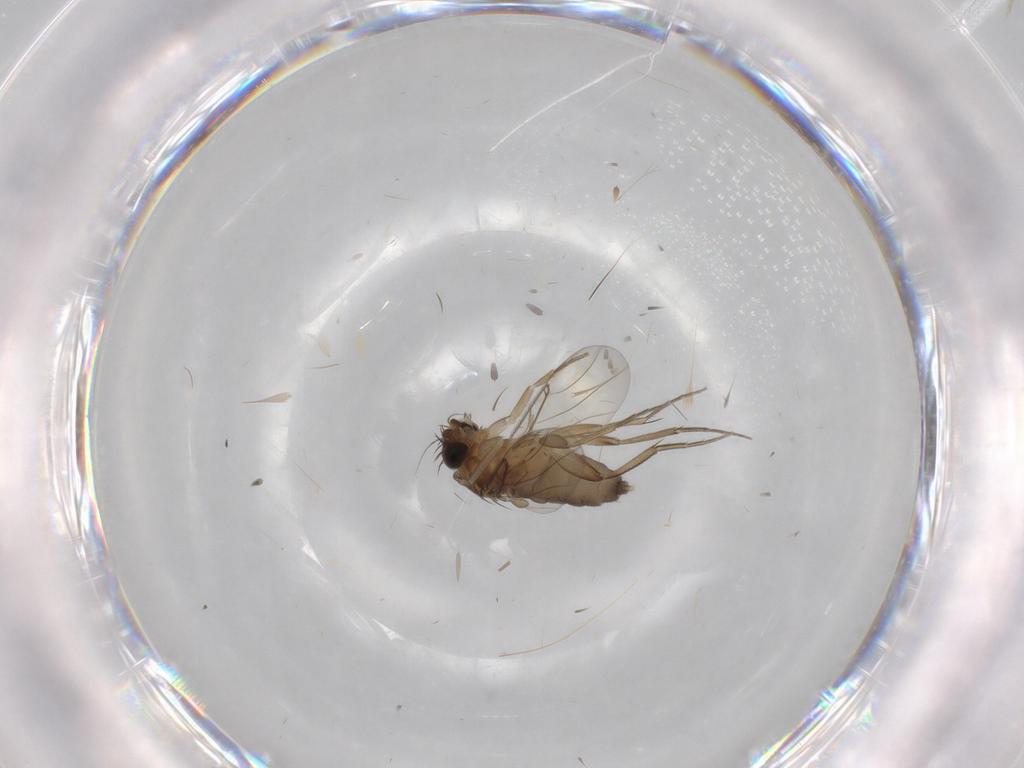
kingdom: Animalia
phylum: Arthropoda
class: Insecta
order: Diptera
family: Phoridae
